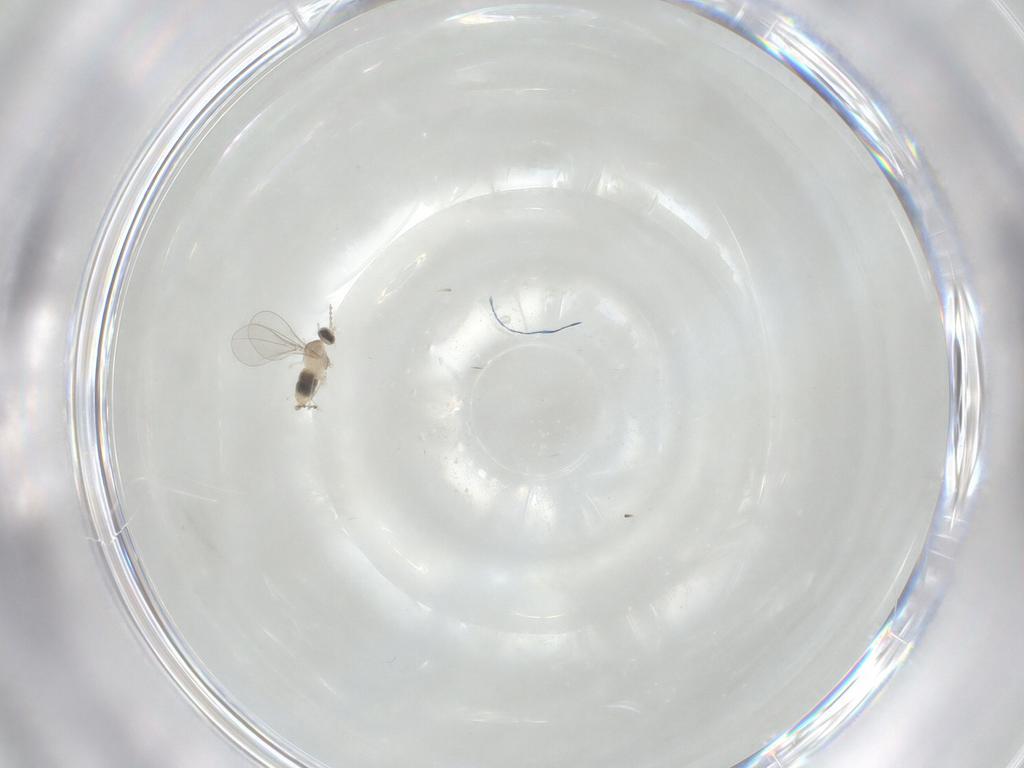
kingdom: Animalia
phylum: Arthropoda
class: Insecta
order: Diptera
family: Cecidomyiidae
